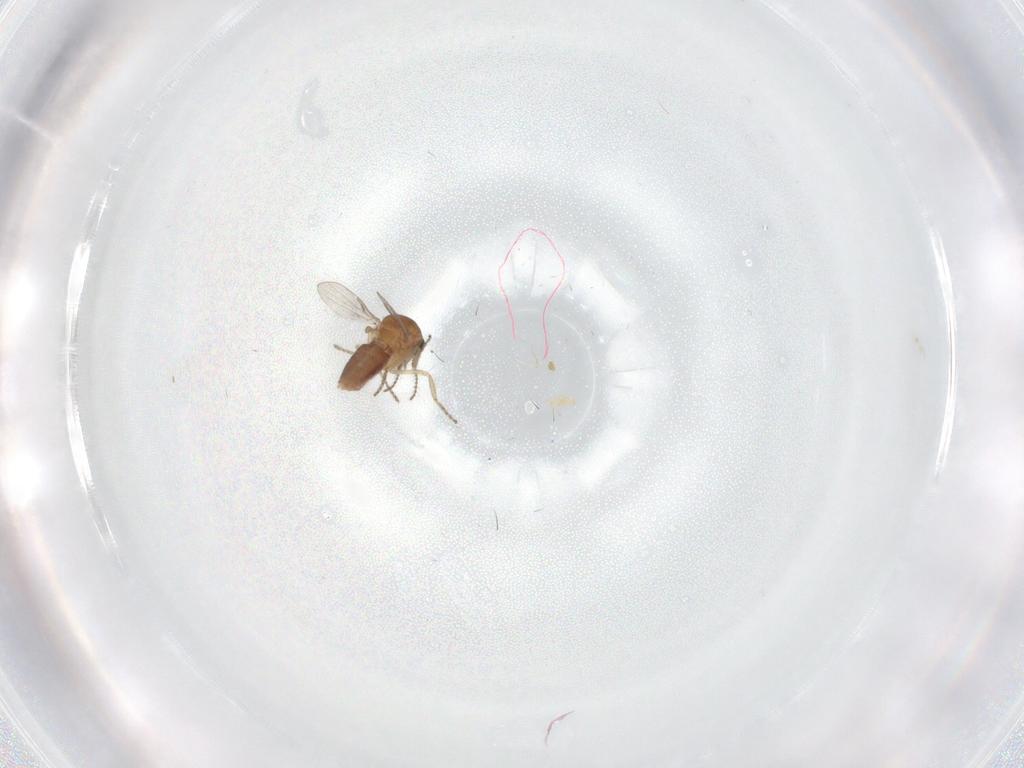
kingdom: Animalia
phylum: Arthropoda
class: Insecta
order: Diptera
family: Ceratopogonidae
